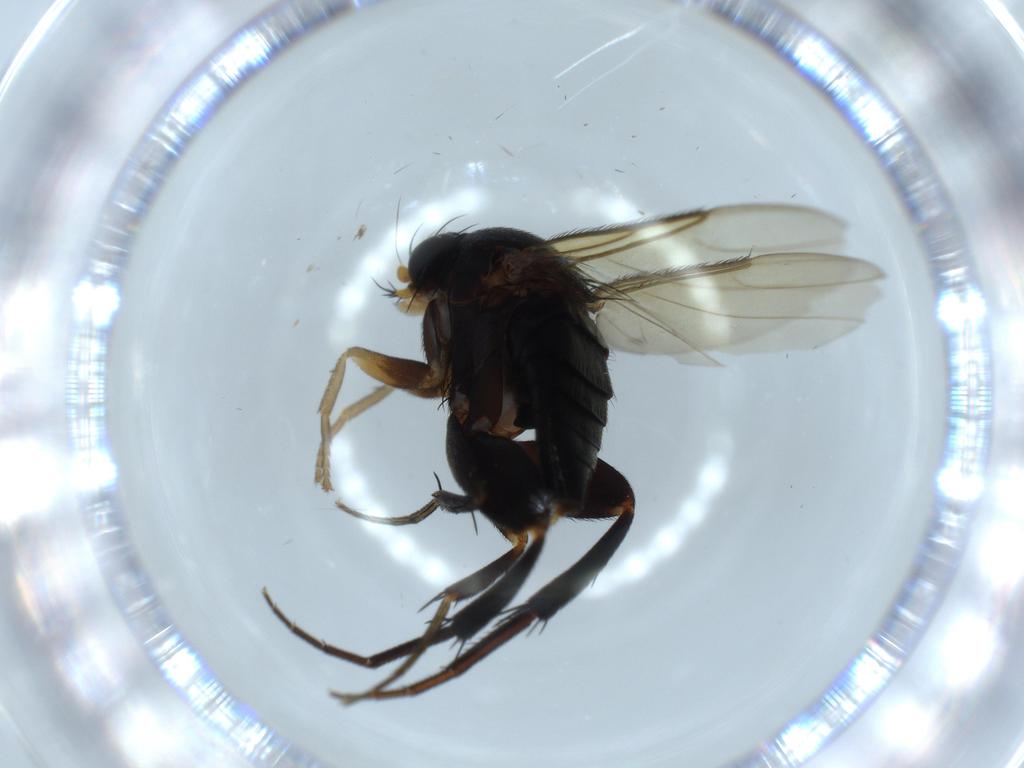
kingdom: Animalia
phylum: Arthropoda
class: Insecta
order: Diptera
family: Phoridae
